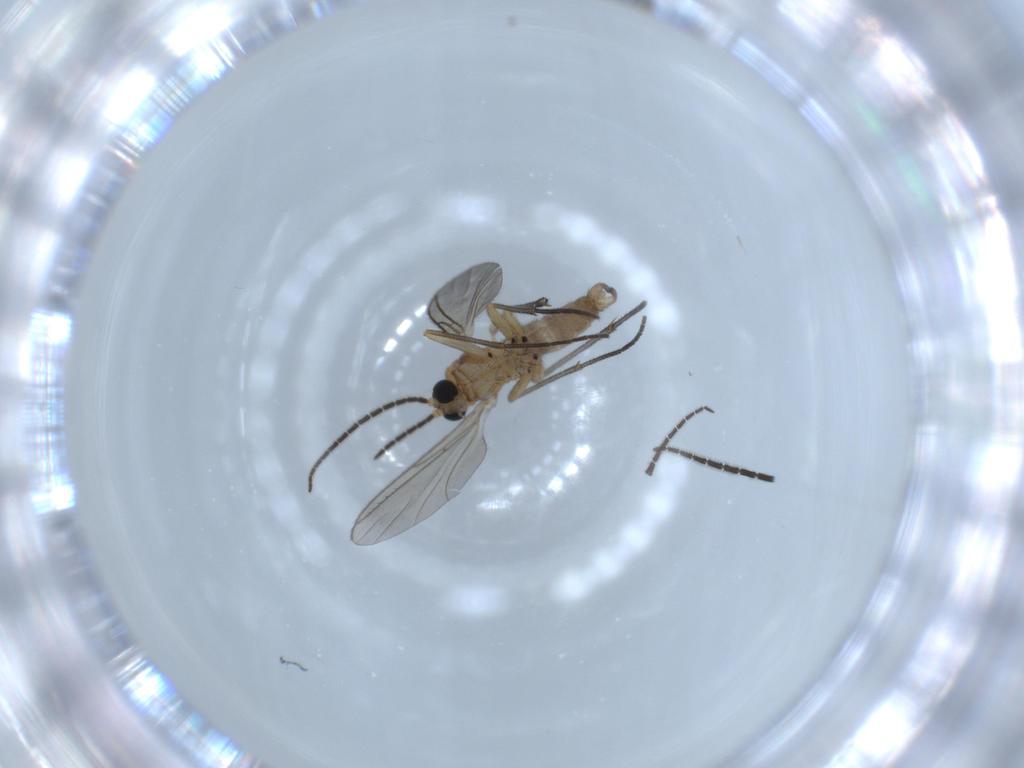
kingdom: Animalia
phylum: Arthropoda
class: Insecta
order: Diptera
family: Sciaridae
